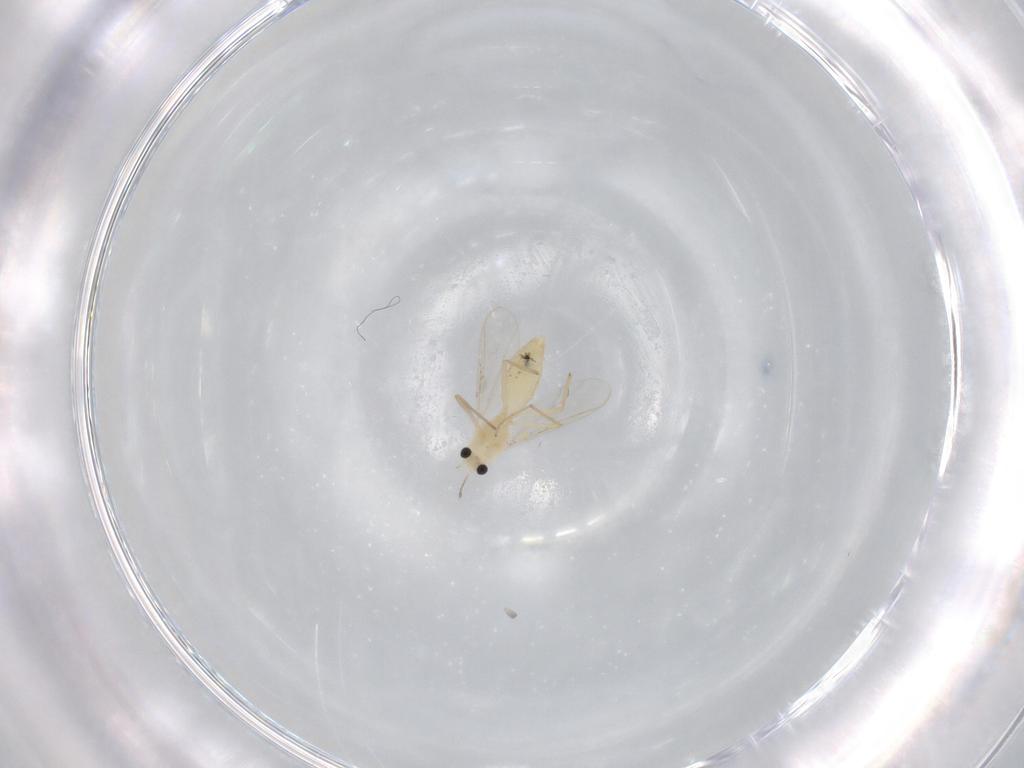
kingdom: Animalia
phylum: Arthropoda
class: Insecta
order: Diptera
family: Chironomidae
